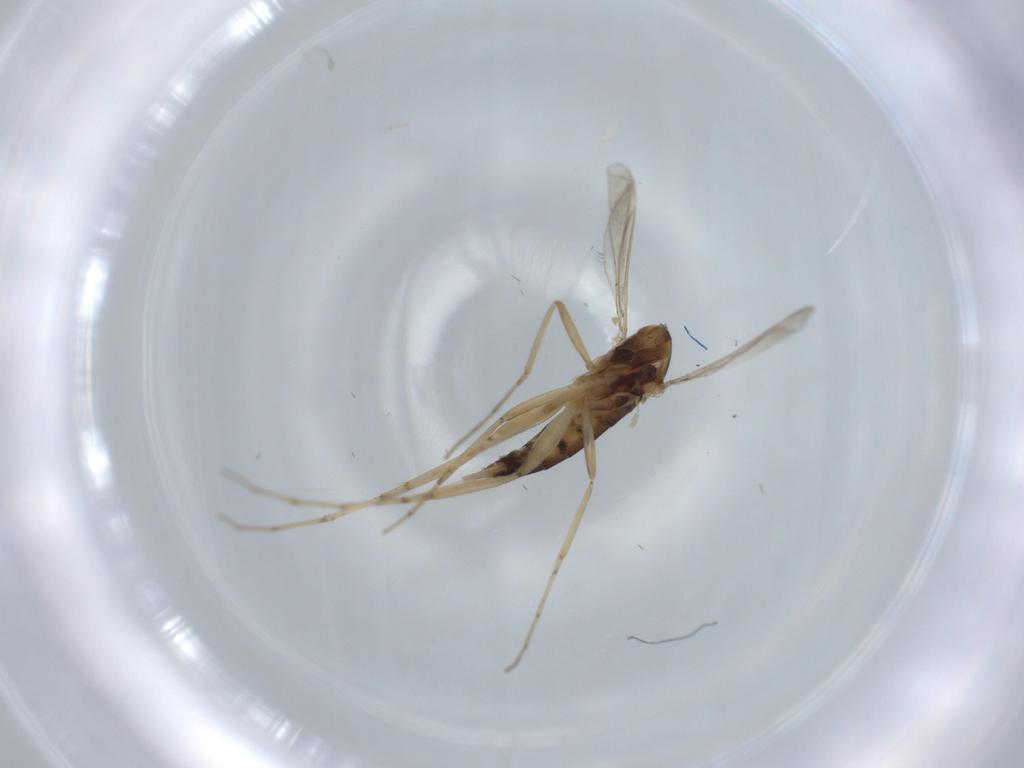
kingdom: Animalia
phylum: Arthropoda
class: Insecta
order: Diptera
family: Cecidomyiidae
